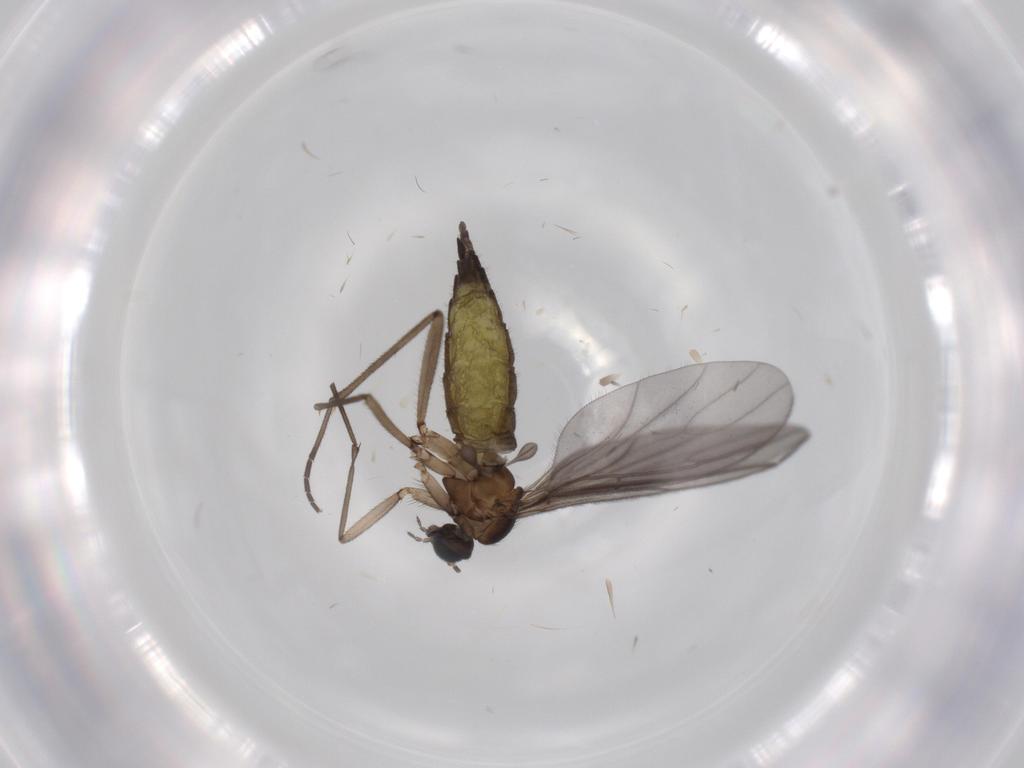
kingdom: Animalia
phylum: Arthropoda
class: Insecta
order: Diptera
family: Sciaridae
